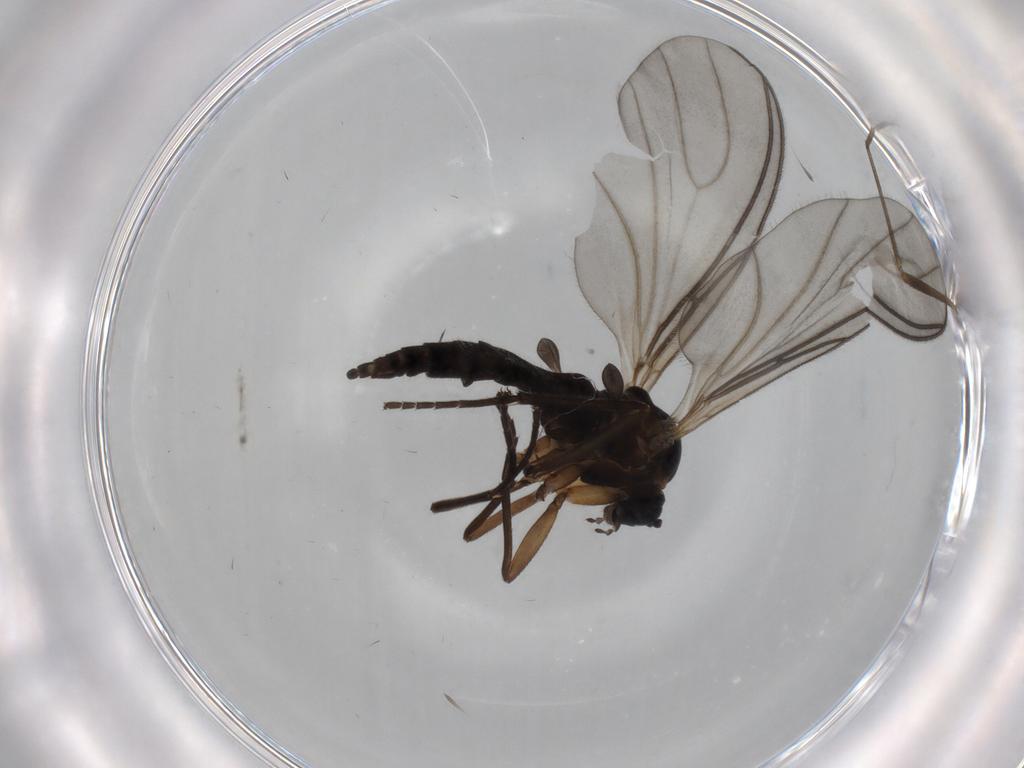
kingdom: Animalia
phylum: Arthropoda
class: Insecta
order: Diptera
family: Sciaridae
